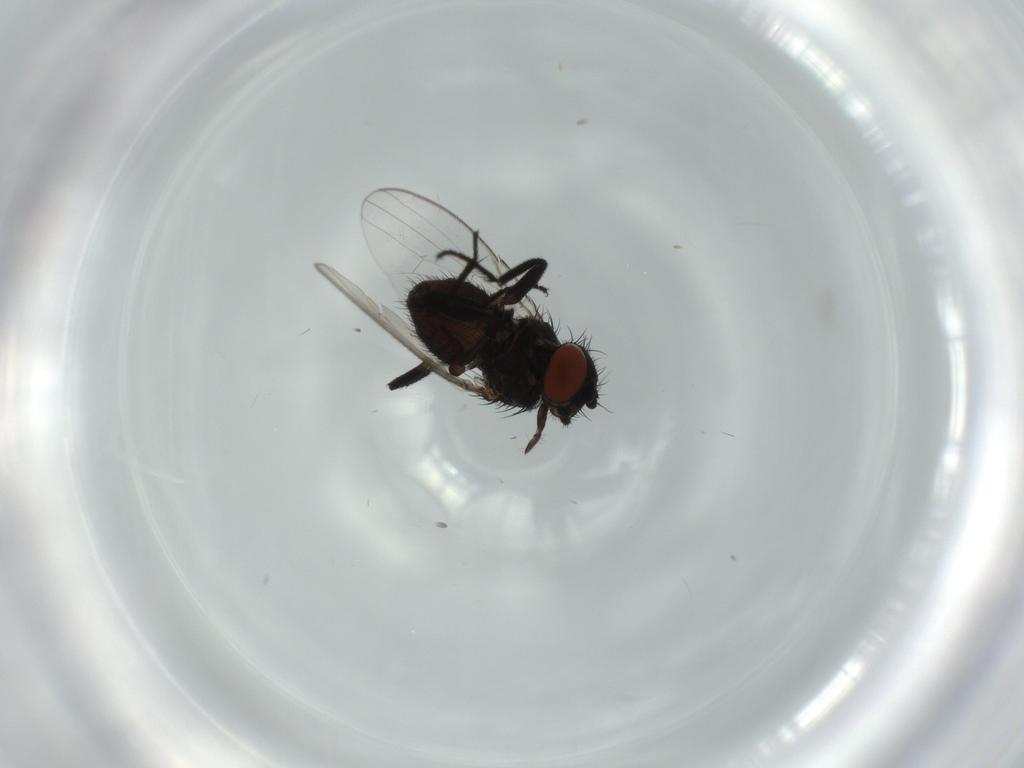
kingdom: Animalia
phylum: Arthropoda
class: Insecta
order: Diptera
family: Milichiidae
